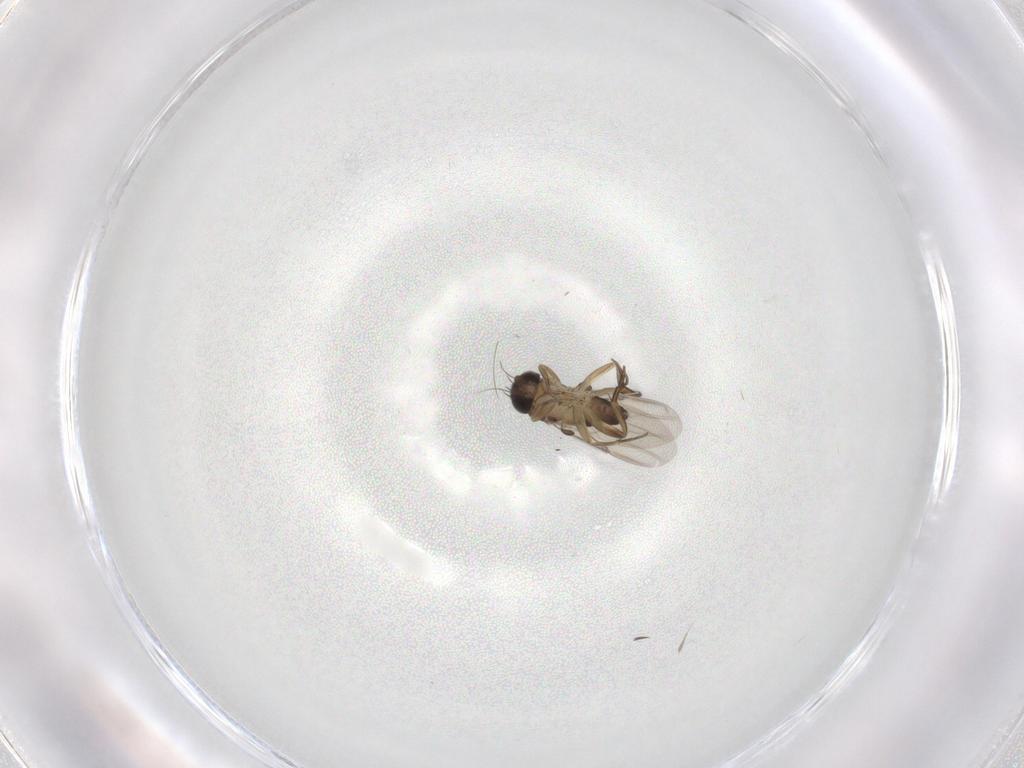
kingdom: Animalia
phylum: Arthropoda
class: Insecta
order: Diptera
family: Phoridae
